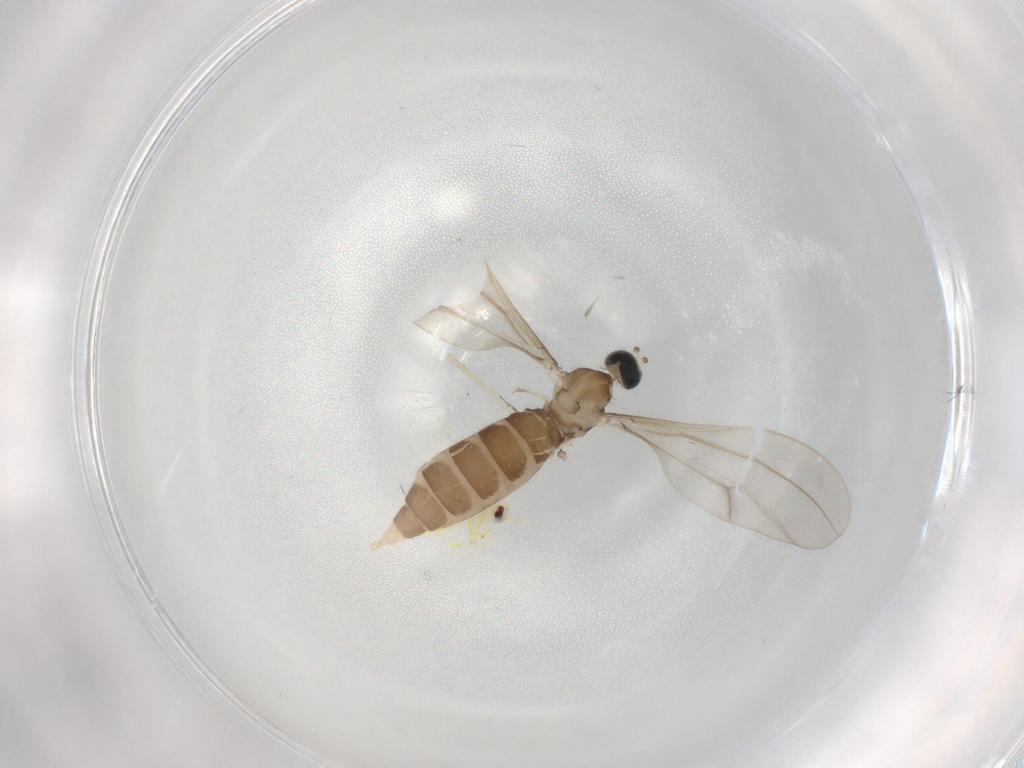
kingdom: Animalia
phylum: Arthropoda
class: Insecta
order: Diptera
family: Cecidomyiidae
